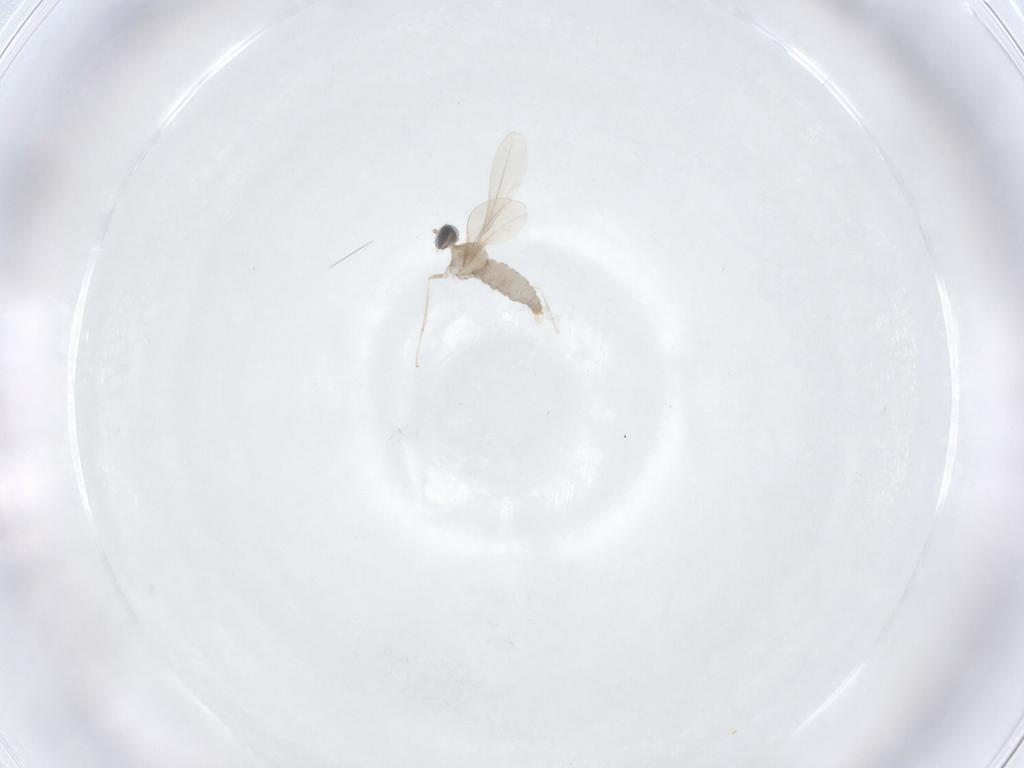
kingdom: Animalia
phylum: Arthropoda
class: Insecta
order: Diptera
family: Cecidomyiidae
